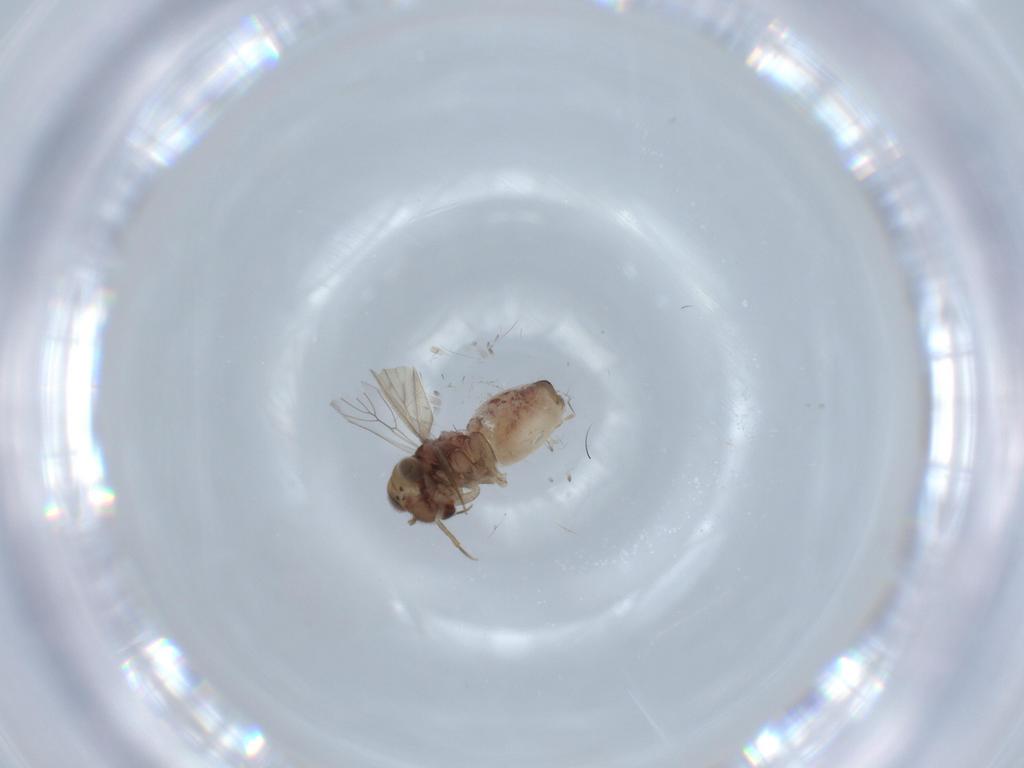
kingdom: Animalia
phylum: Arthropoda
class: Insecta
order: Psocodea
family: Lepidopsocidae
